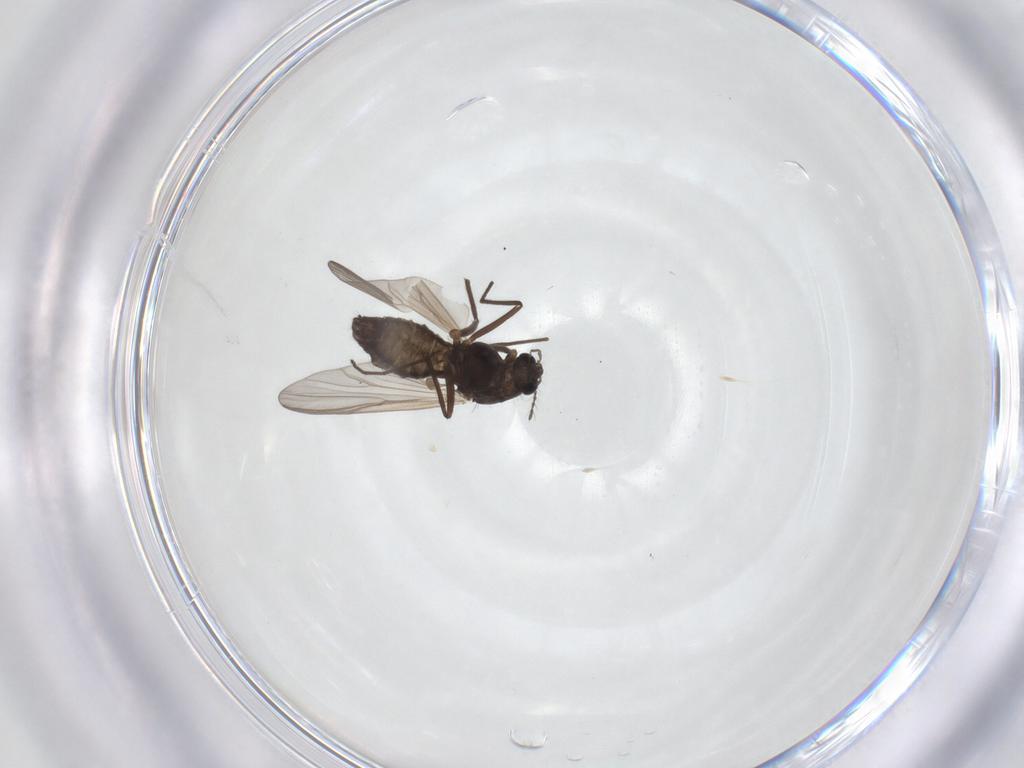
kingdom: Animalia
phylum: Arthropoda
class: Insecta
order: Diptera
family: Chironomidae
